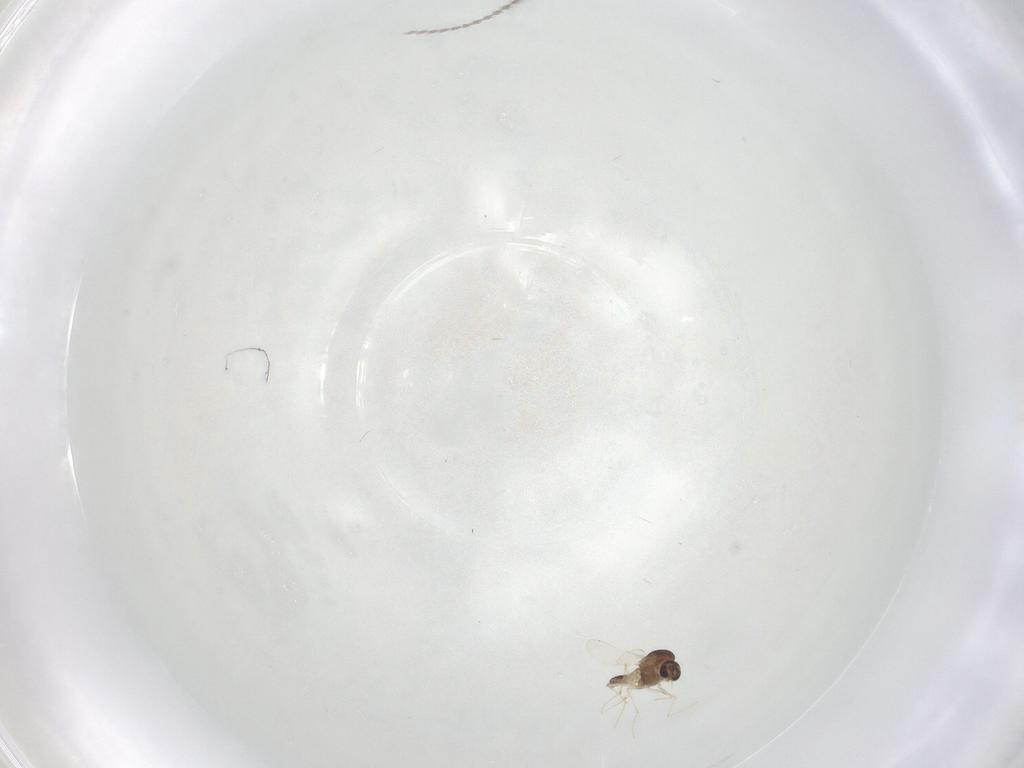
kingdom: Animalia
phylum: Arthropoda
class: Insecta
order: Diptera
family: Cecidomyiidae
